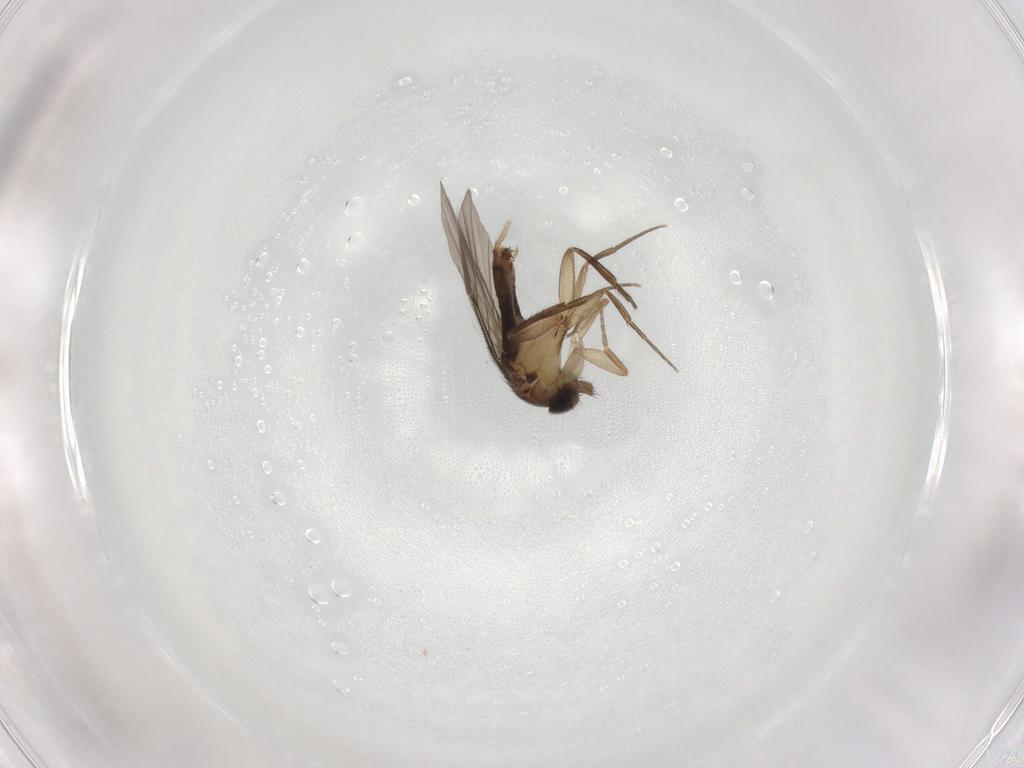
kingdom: Animalia
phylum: Arthropoda
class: Insecta
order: Diptera
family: Phoridae
